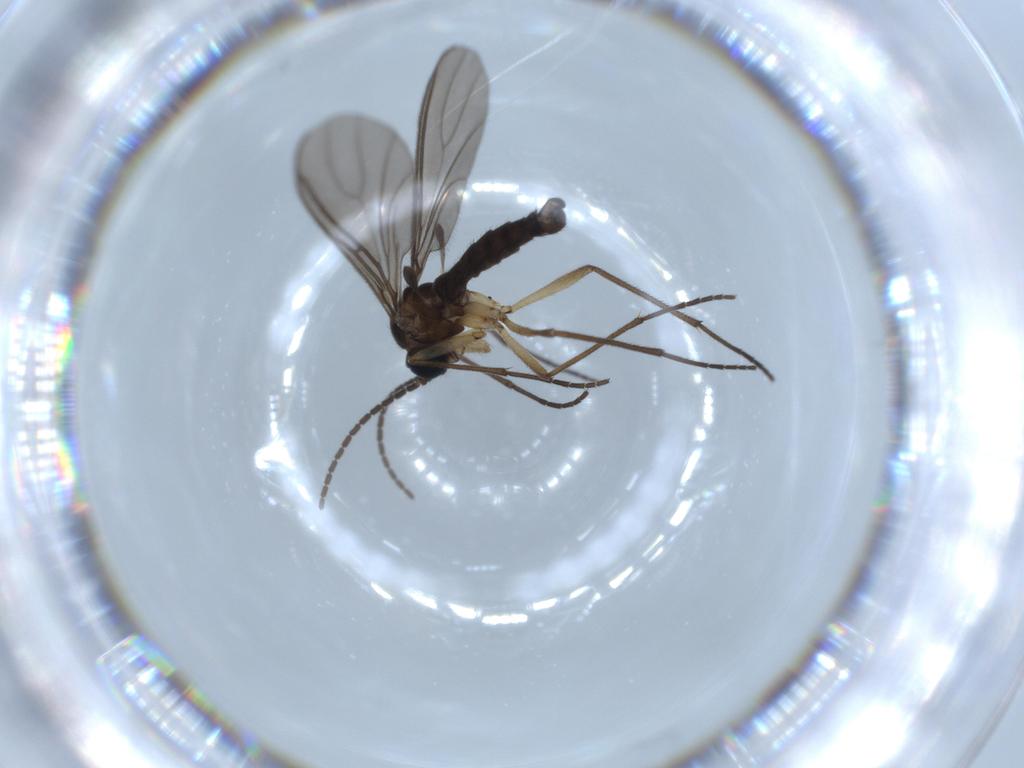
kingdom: Animalia
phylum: Arthropoda
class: Insecta
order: Diptera
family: Sciaridae
